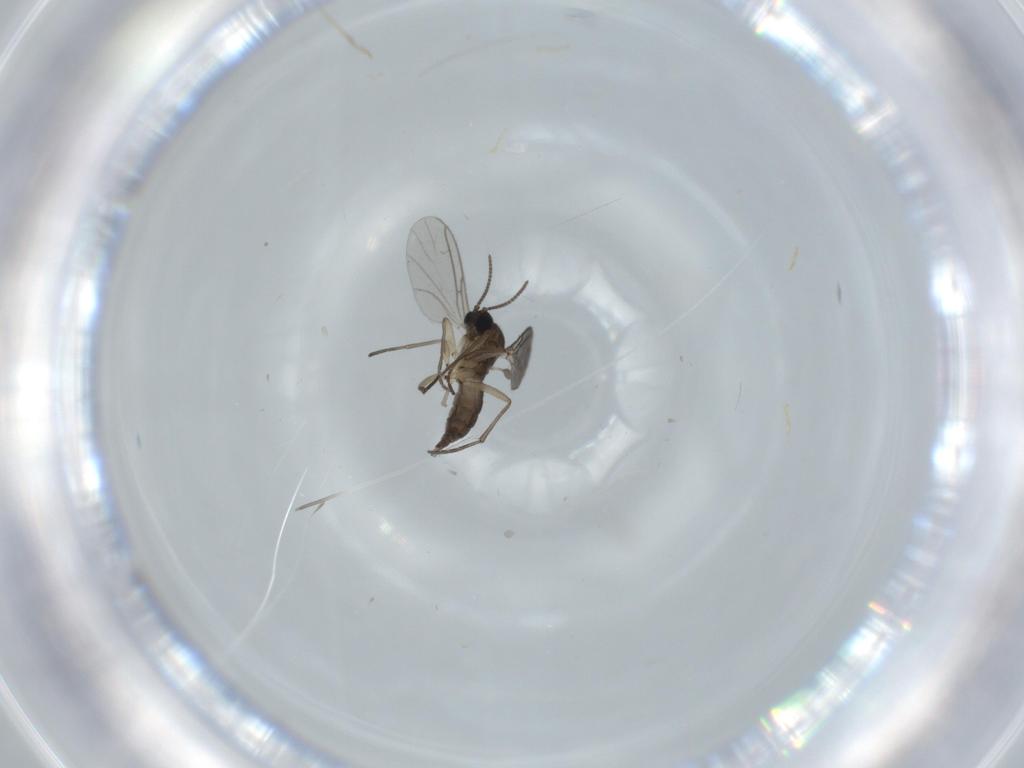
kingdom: Animalia
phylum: Arthropoda
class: Insecta
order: Diptera
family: Sciaridae
